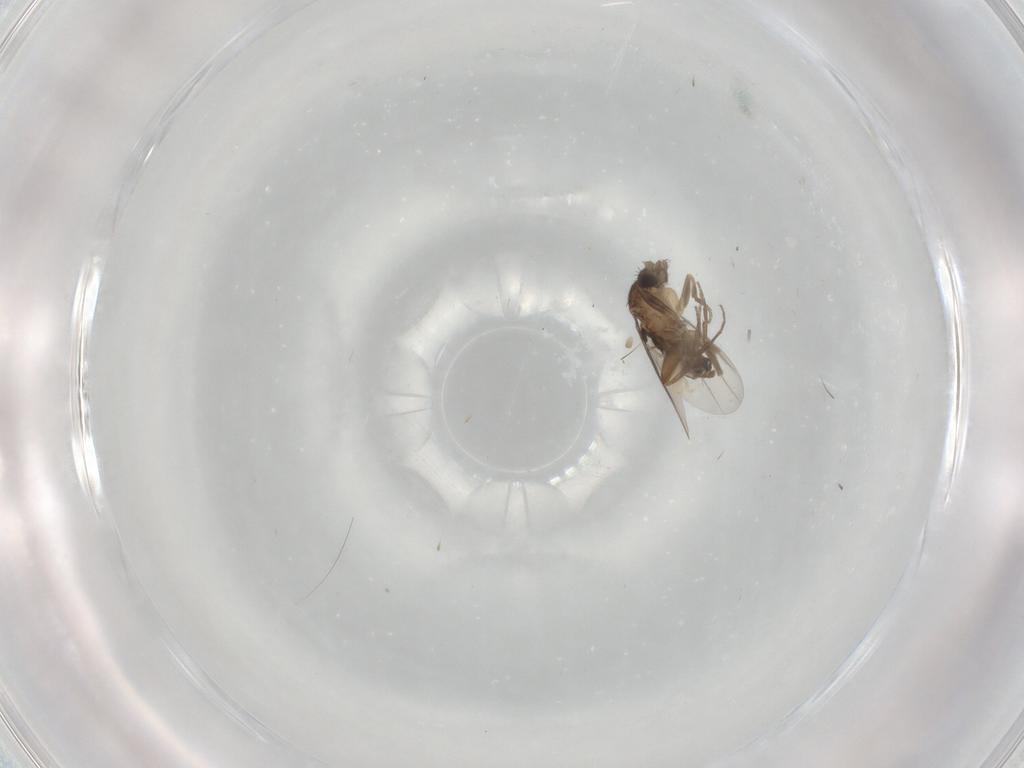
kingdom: Animalia
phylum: Arthropoda
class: Insecta
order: Diptera
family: Phoridae
